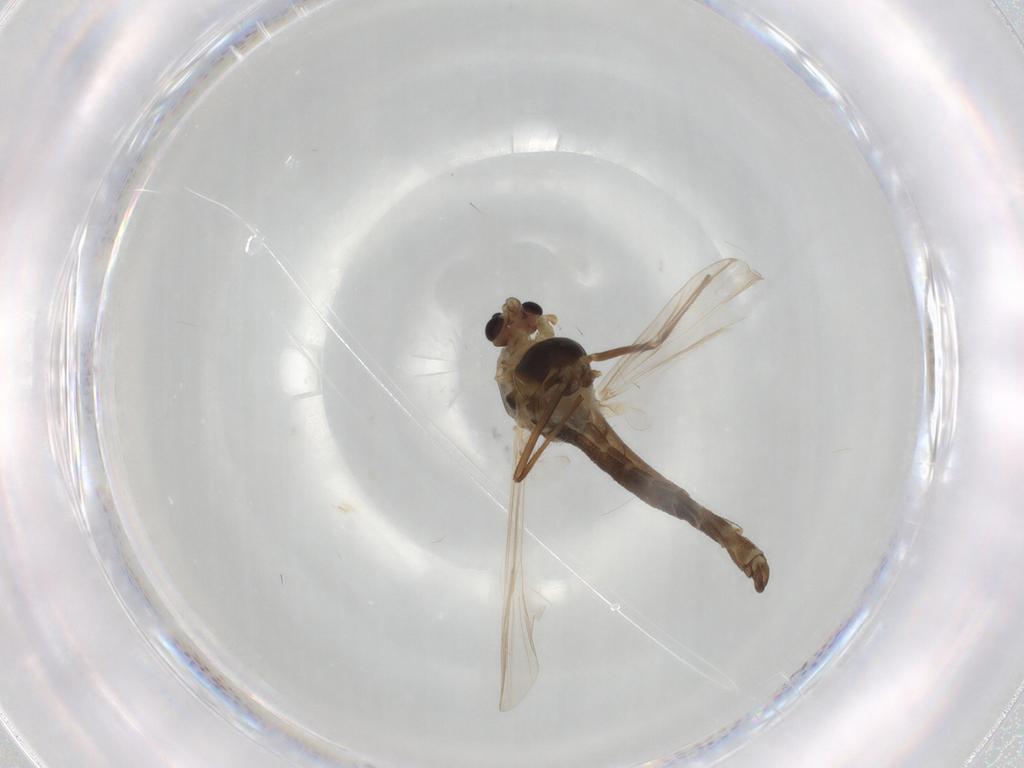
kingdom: Animalia
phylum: Arthropoda
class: Insecta
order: Diptera
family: Chironomidae
